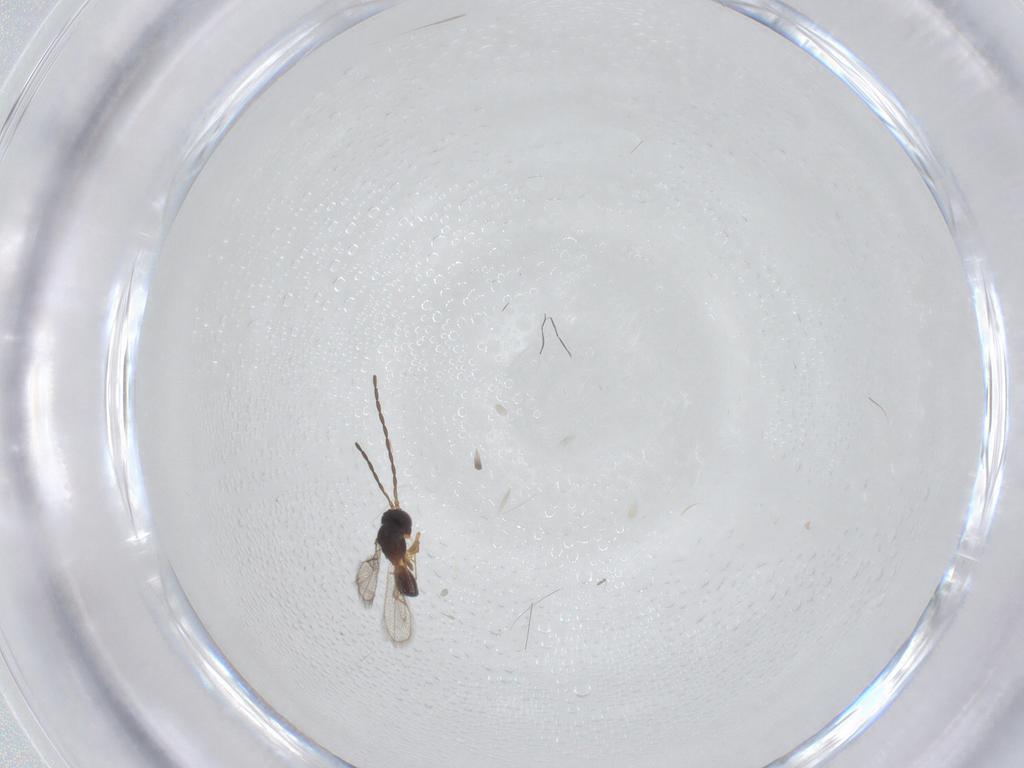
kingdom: Animalia
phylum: Arthropoda
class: Insecta
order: Hymenoptera
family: Figitidae
